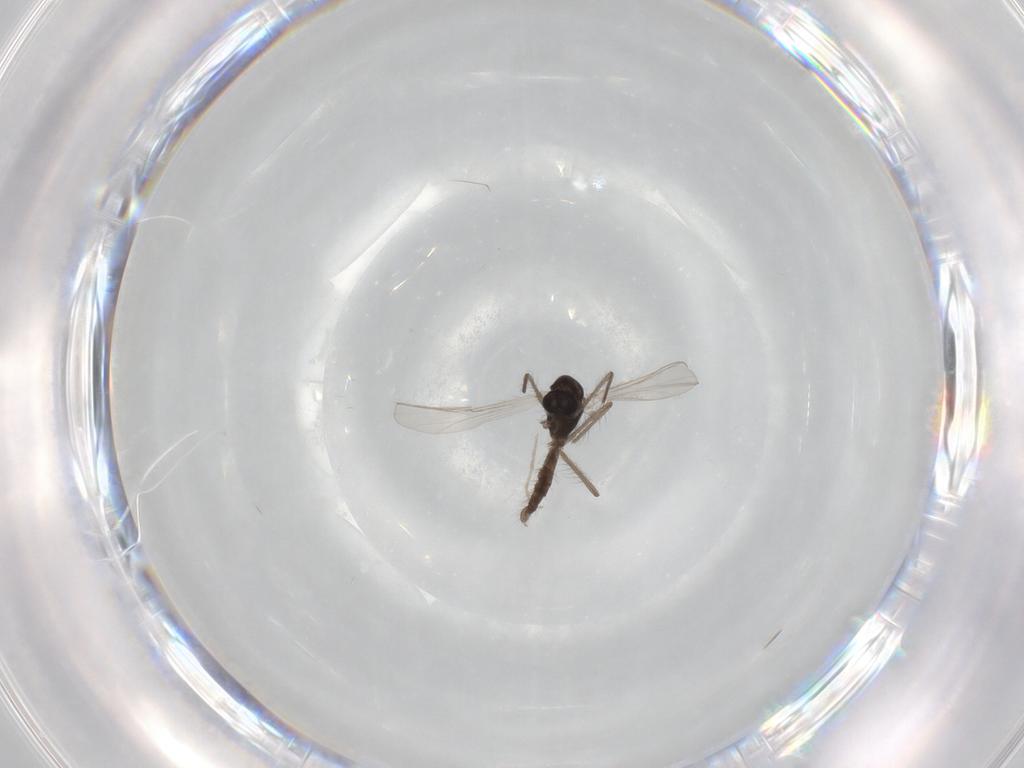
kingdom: Animalia
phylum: Arthropoda
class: Insecta
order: Diptera
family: Chironomidae
